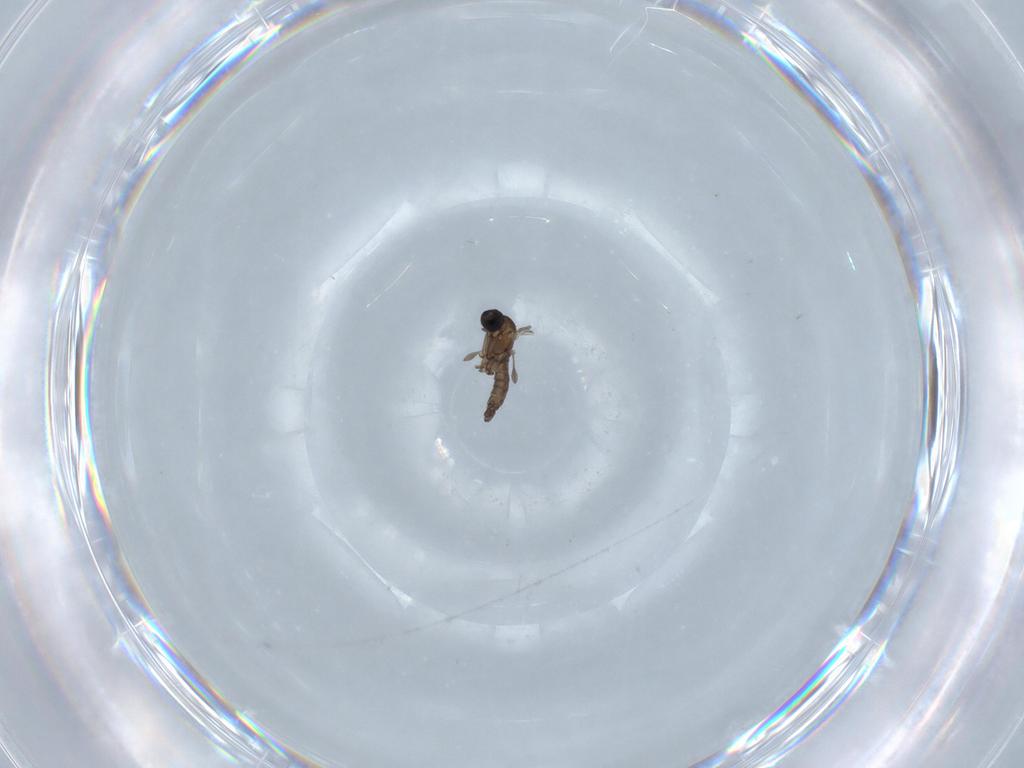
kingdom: Animalia
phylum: Arthropoda
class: Insecta
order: Diptera
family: Sciaridae
